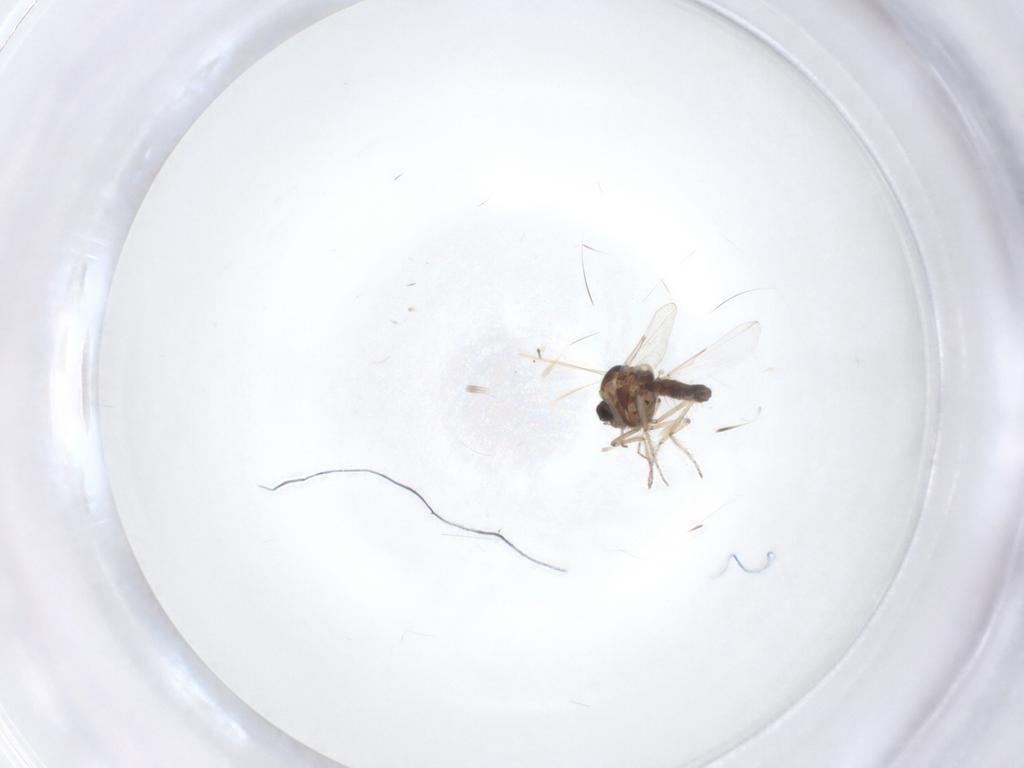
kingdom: Animalia
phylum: Arthropoda
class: Insecta
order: Diptera
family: Ceratopogonidae
